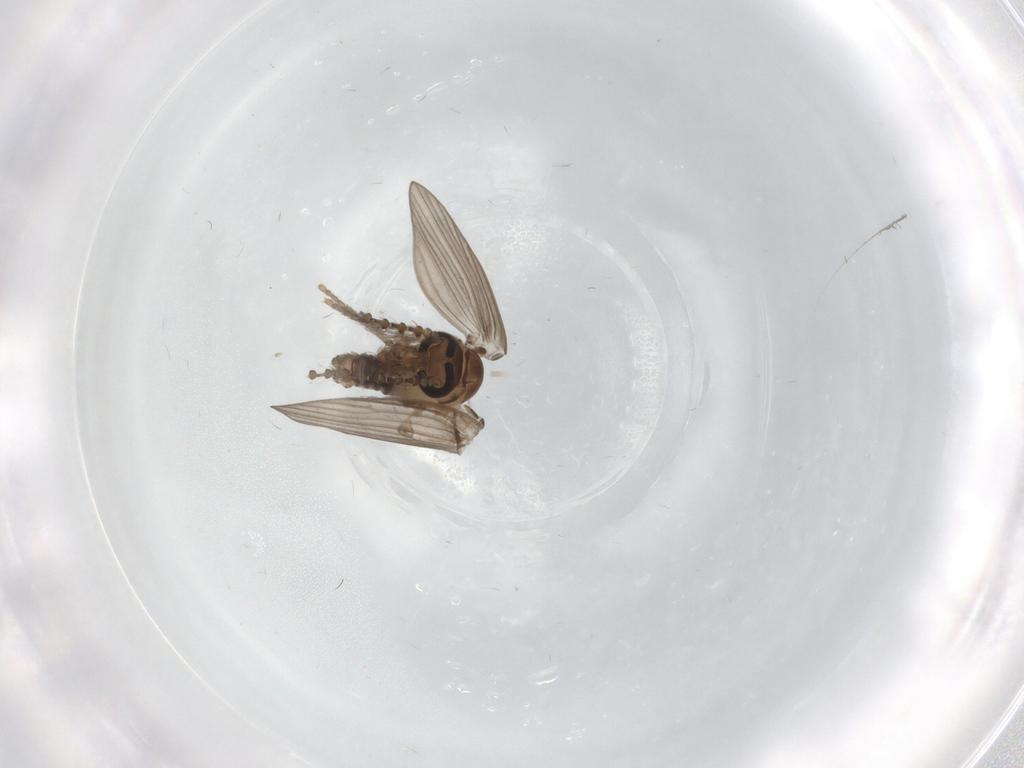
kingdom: Animalia
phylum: Arthropoda
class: Insecta
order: Diptera
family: Psychodidae
